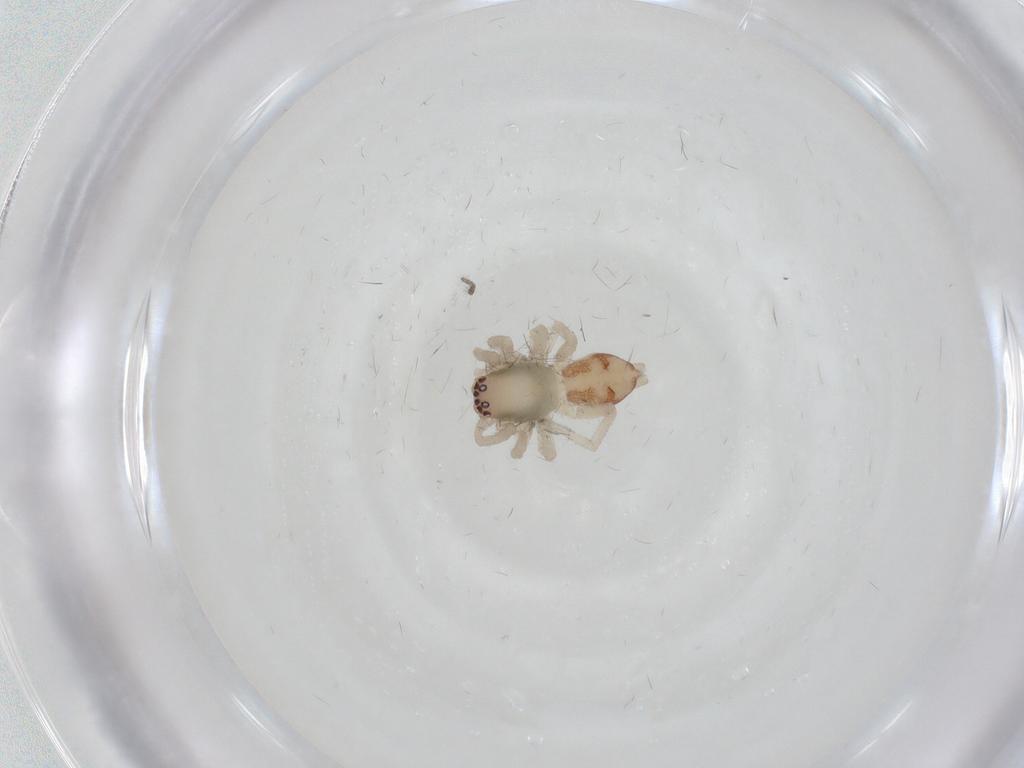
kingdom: Animalia
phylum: Arthropoda
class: Arachnida
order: Araneae
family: Clubionidae
